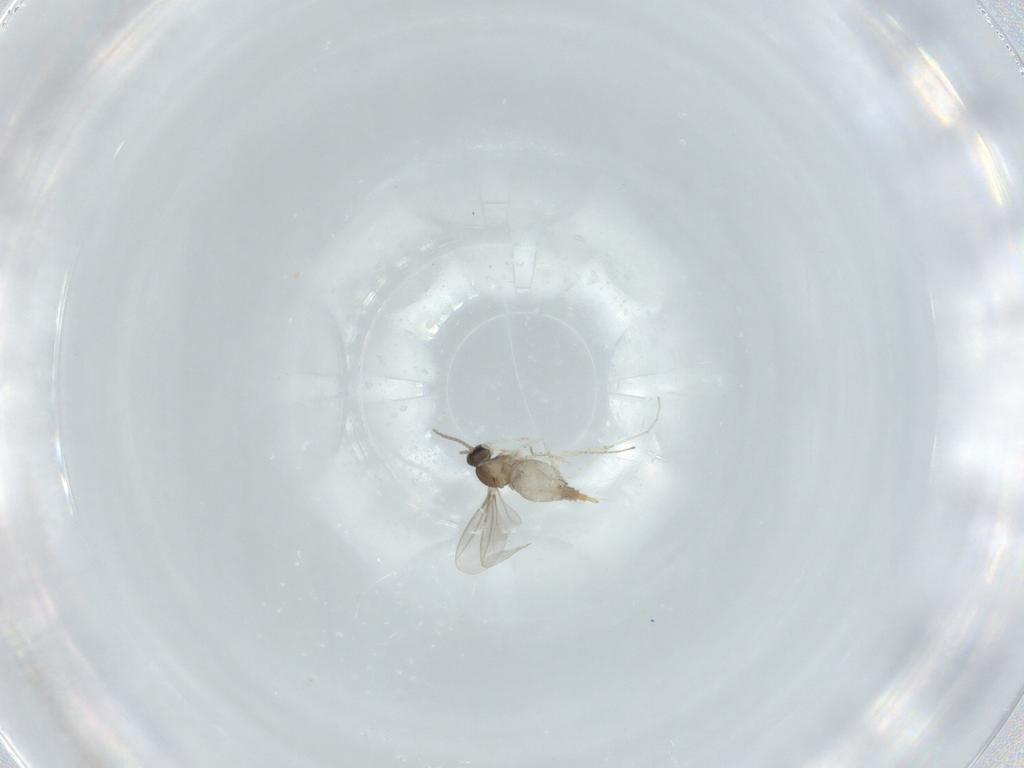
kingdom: Animalia
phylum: Arthropoda
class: Insecta
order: Diptera
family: Cecidomyiidae
